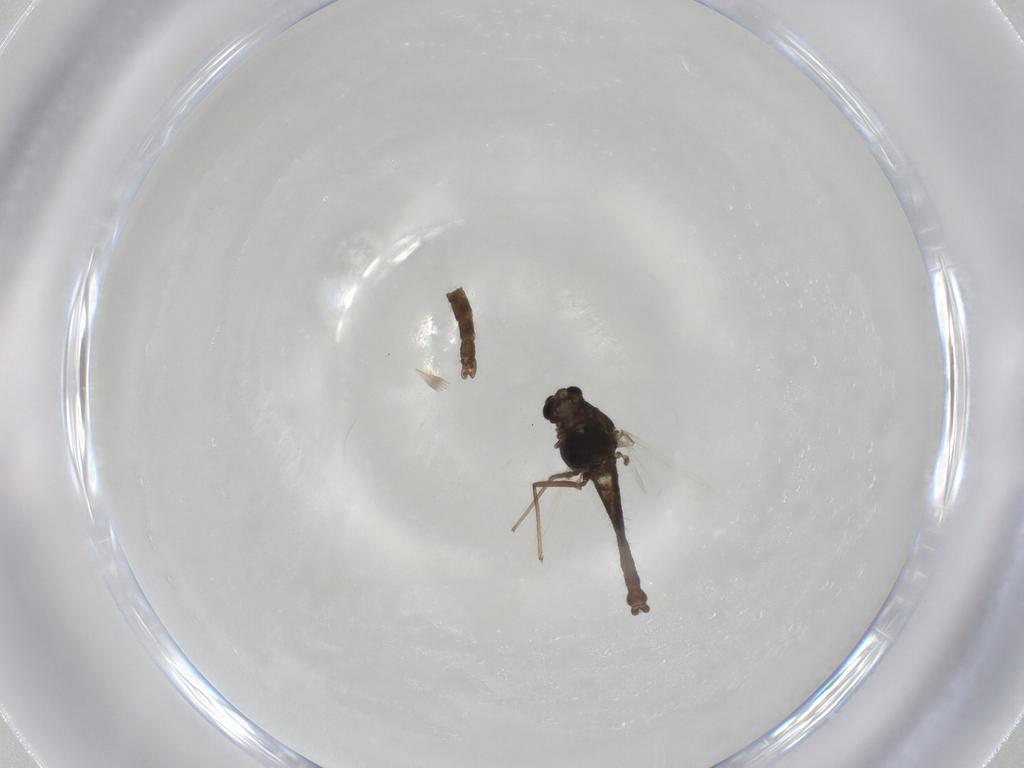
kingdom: Animalia
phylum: Arthropoda
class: Insecta
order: Diptera
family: Chironomidae
